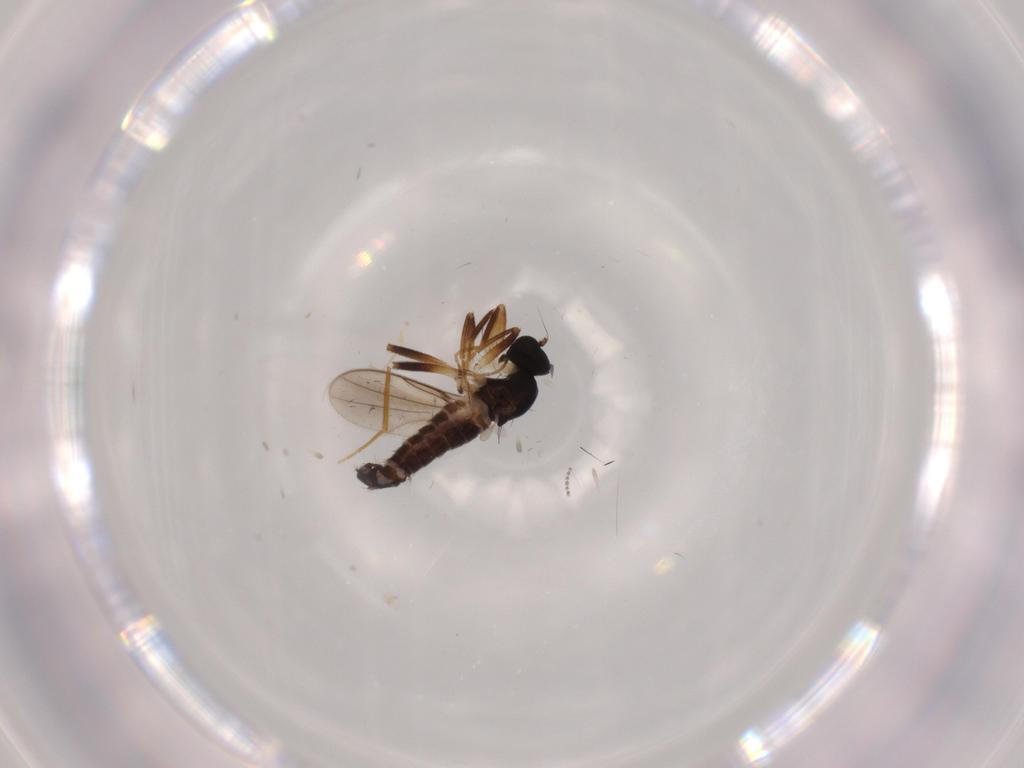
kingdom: Animalia
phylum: Arthropoda
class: Insecta
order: Diptera
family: Hybotidae
